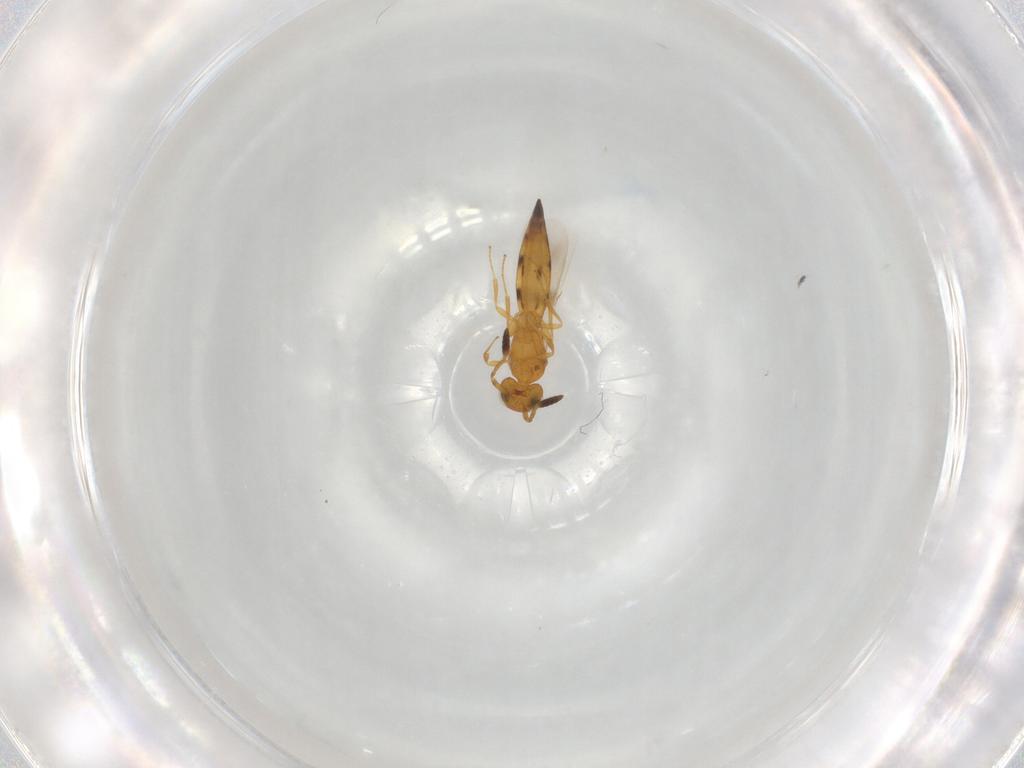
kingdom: Animalia
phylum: Arthropoda
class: Insecta
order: Hymenoptera
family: Scelionidae
